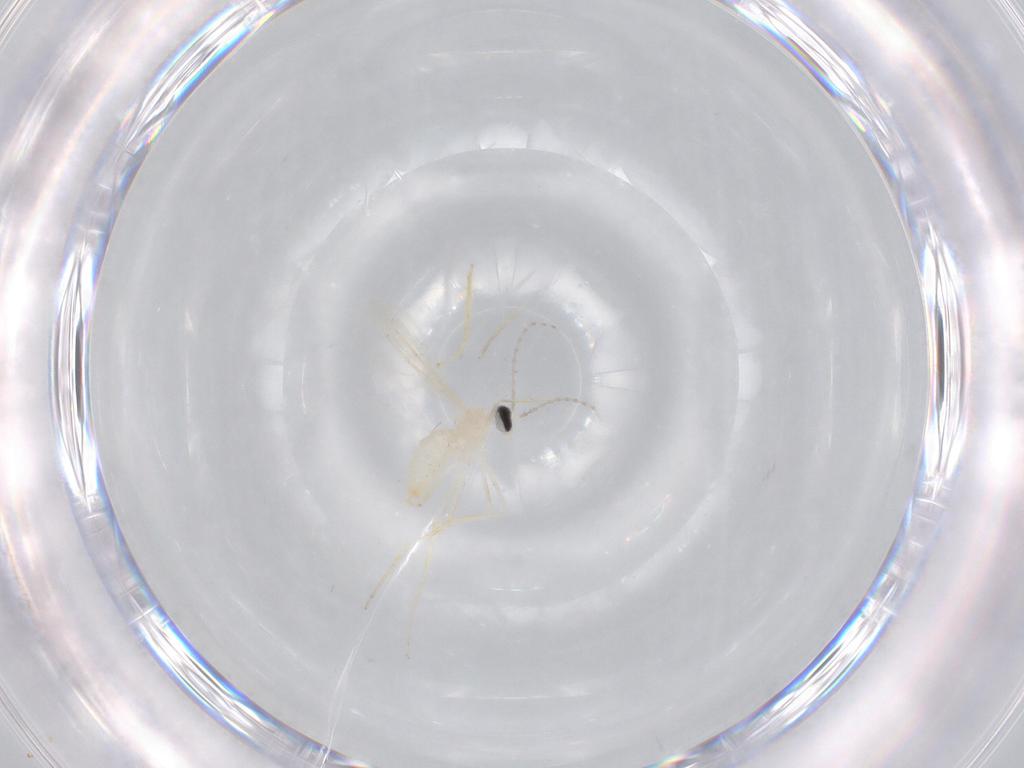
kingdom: Animalia
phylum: Arthropoda
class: Insecta
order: Diptera
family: Cecidomyiidae
